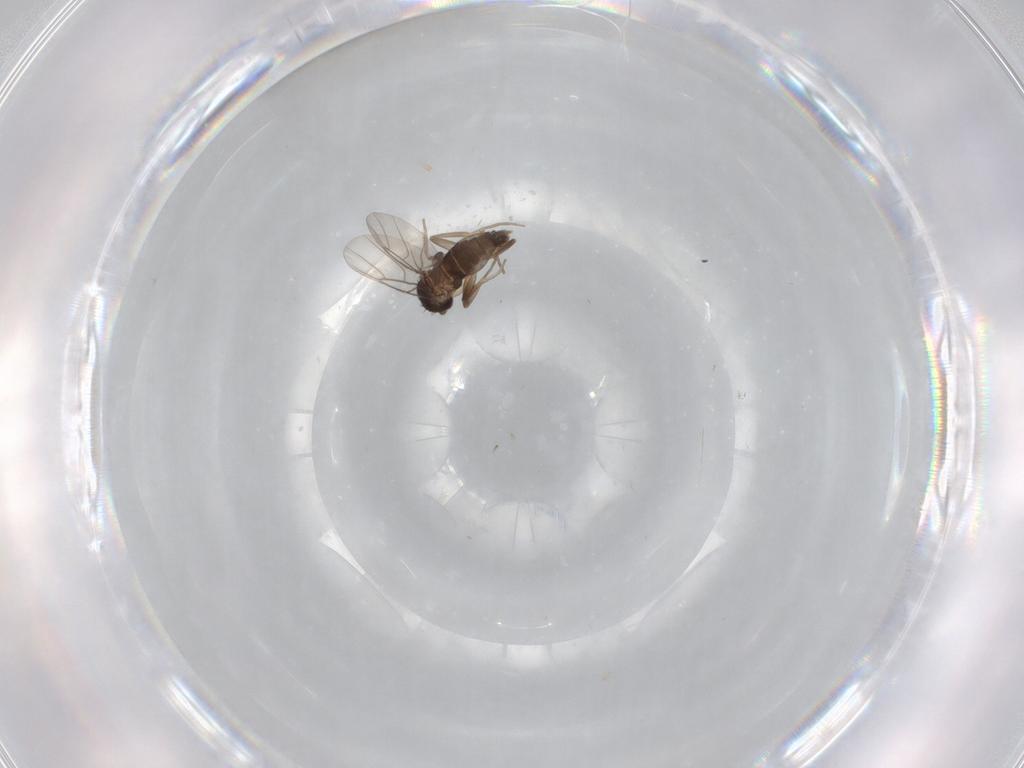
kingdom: Animalia
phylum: Arthropoda
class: Insecta
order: Diptera
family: Phoridae
